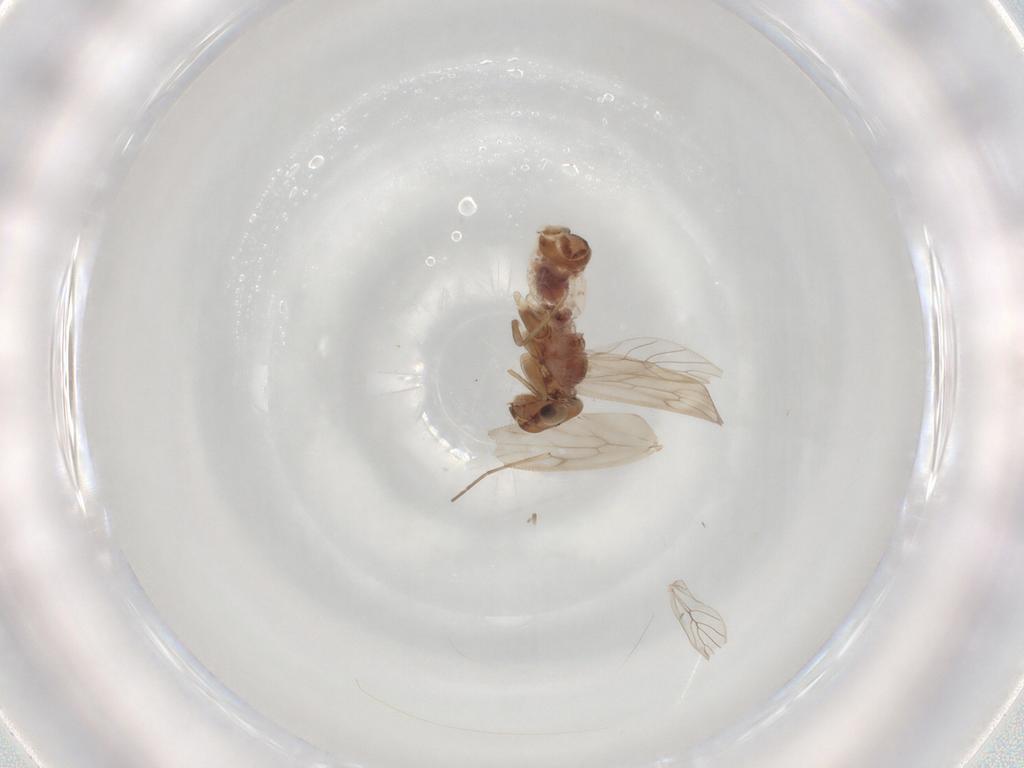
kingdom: Animalia
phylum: Arthropoda
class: Insecta
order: Psocodea
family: Lepidopsocidae
